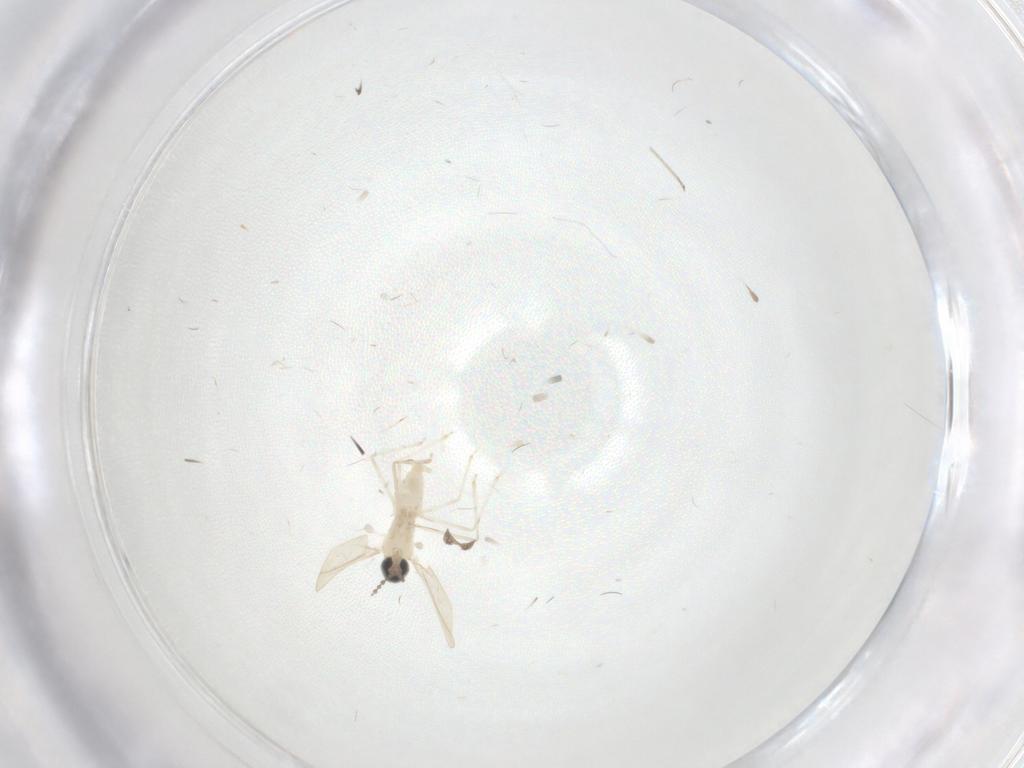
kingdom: Animalia
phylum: Arthropoda
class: Insecta
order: Diptera
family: Cecidomyiidae
